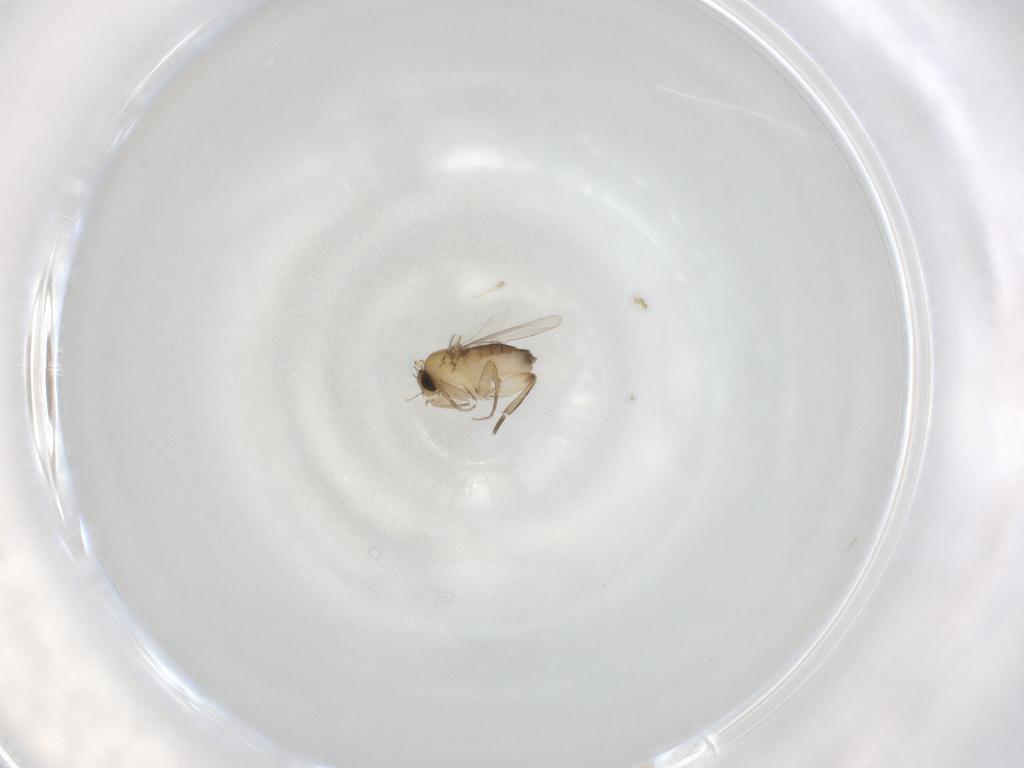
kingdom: Animalia
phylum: Arthropoda
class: Insecta
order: Diptera
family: Phoridae
